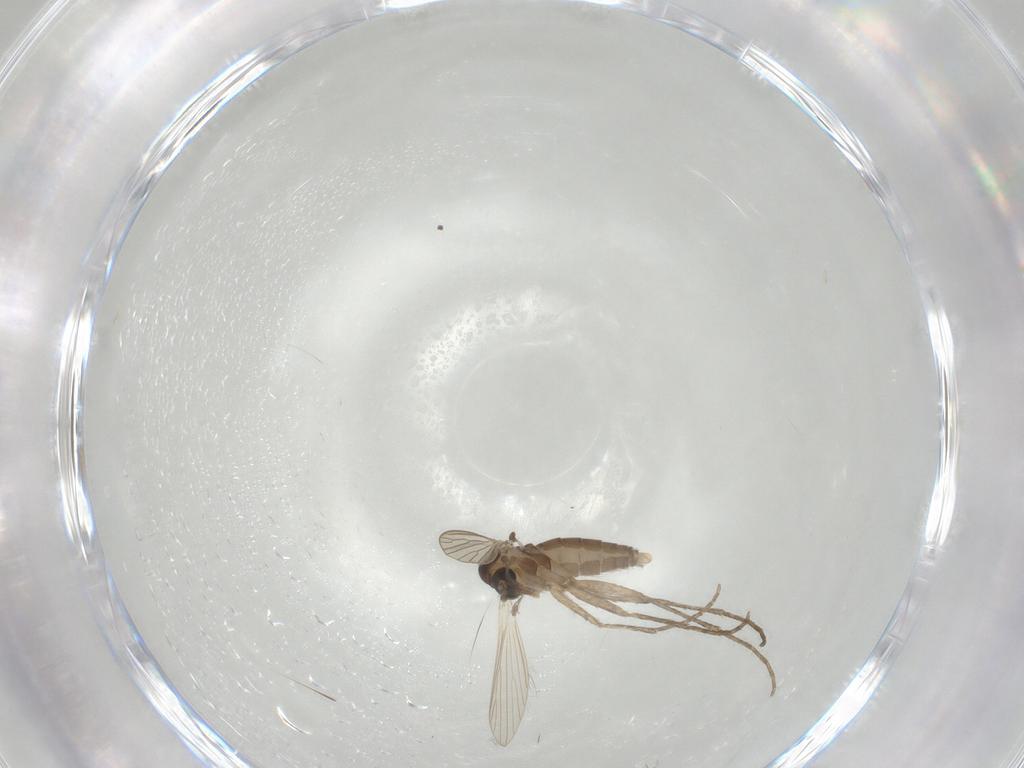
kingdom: Animalia
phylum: Arthropoda
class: Insecta
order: Diptera
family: Psychodidae
